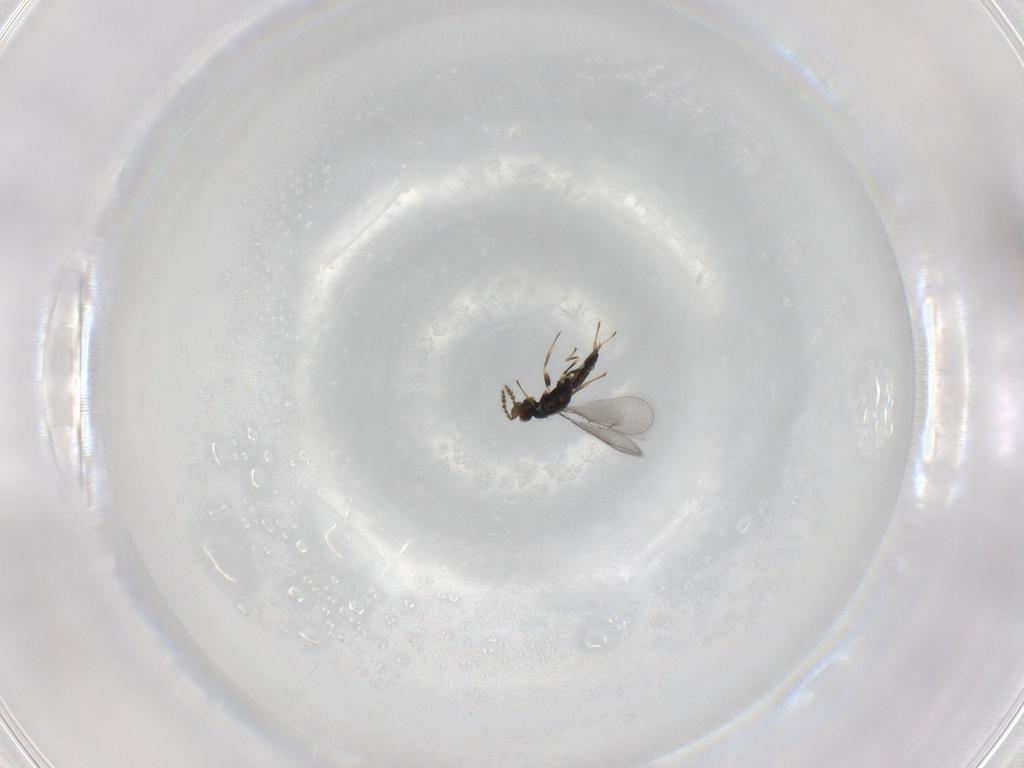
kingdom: Animalia
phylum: Arthropoda
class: Insecta
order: Hymenoptera
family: Eulophidae
